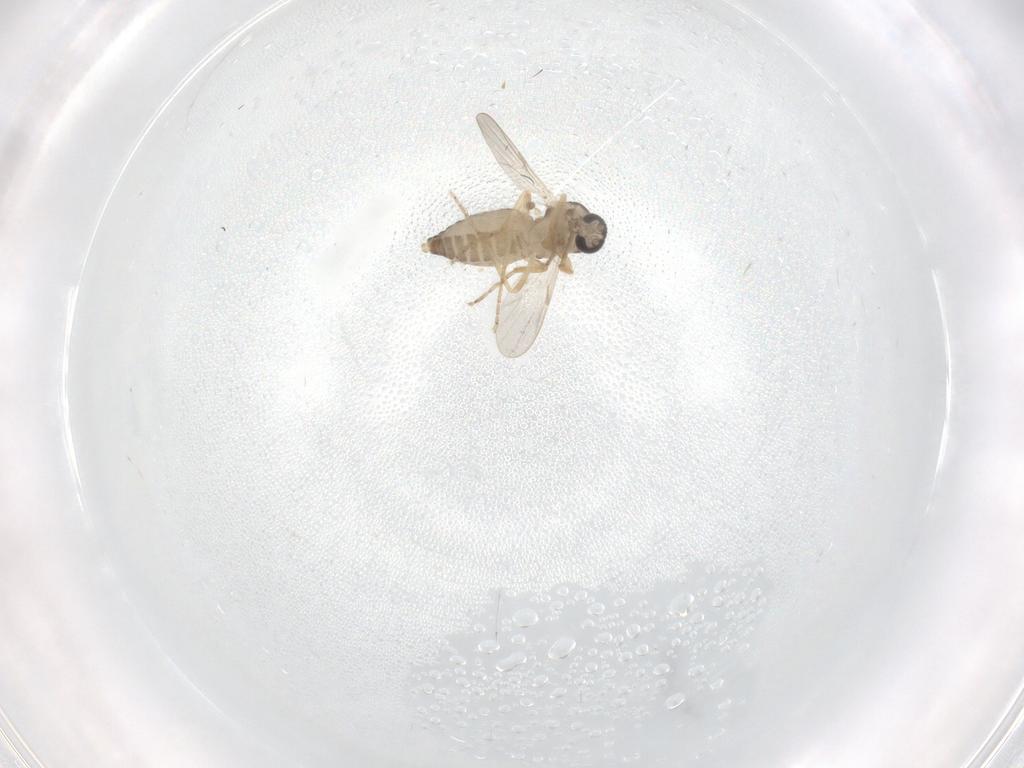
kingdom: Animalia
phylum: Arthropoda
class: Insecta
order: Diptera
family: Ceratopogonidae
